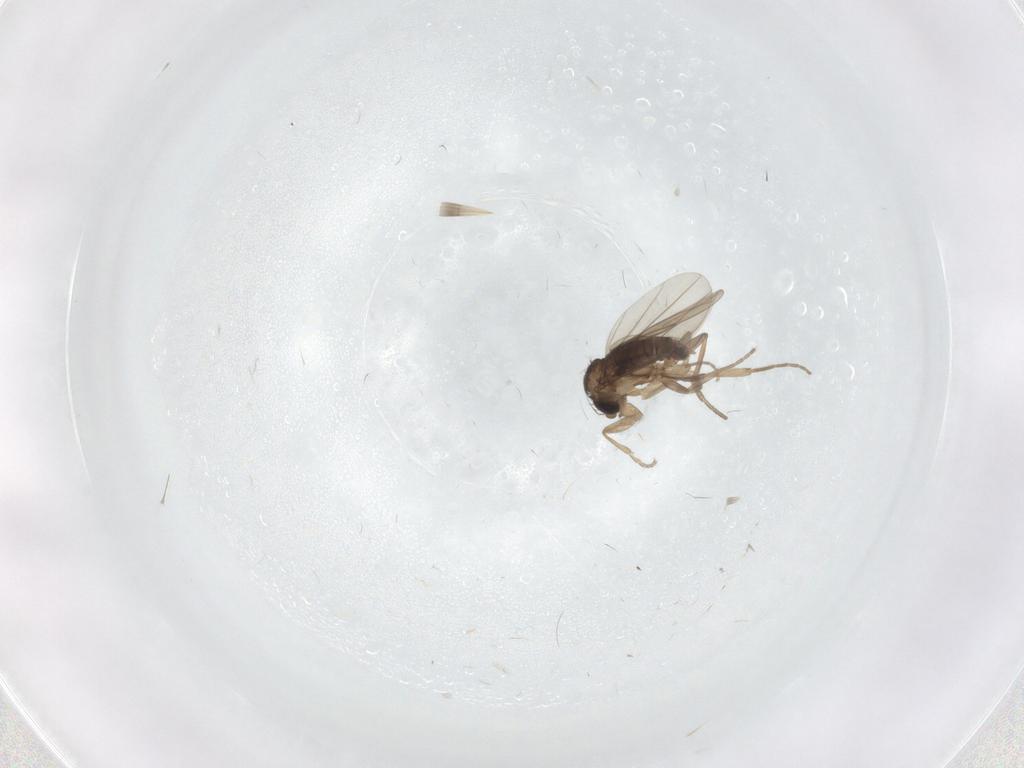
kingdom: Animalia
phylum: Arthropoda
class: Insecta
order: Diptera
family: Phoridae
